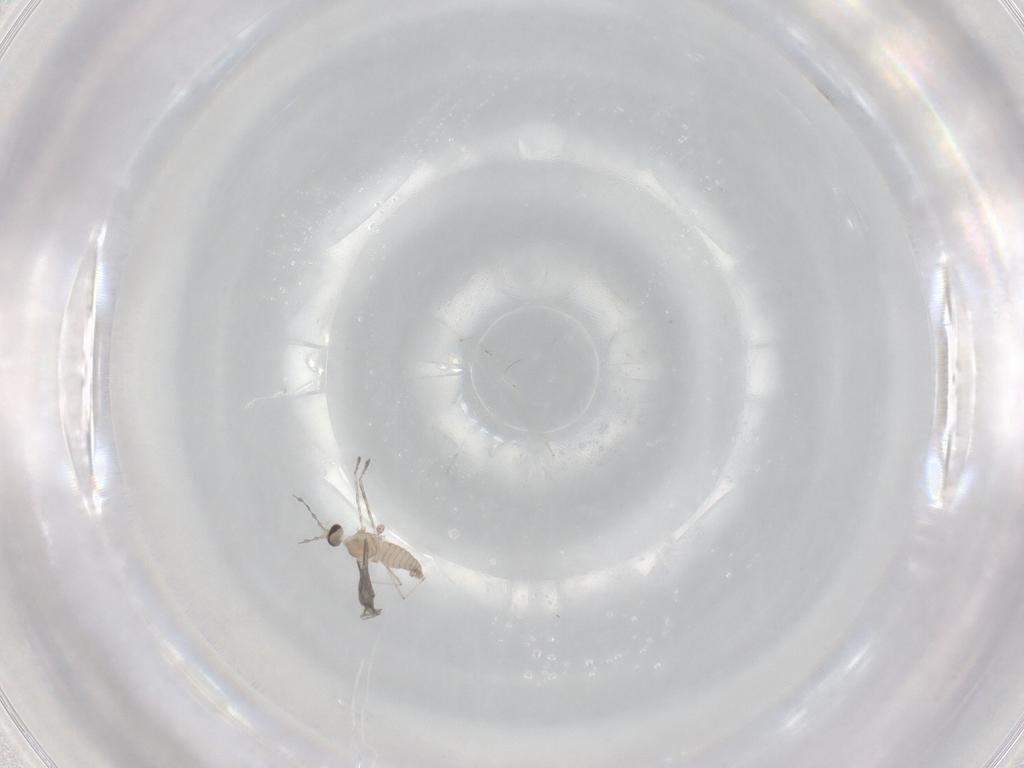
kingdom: Animalia
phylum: Arthropoda
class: Insecta
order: Diptera
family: Cecidomyiidae
